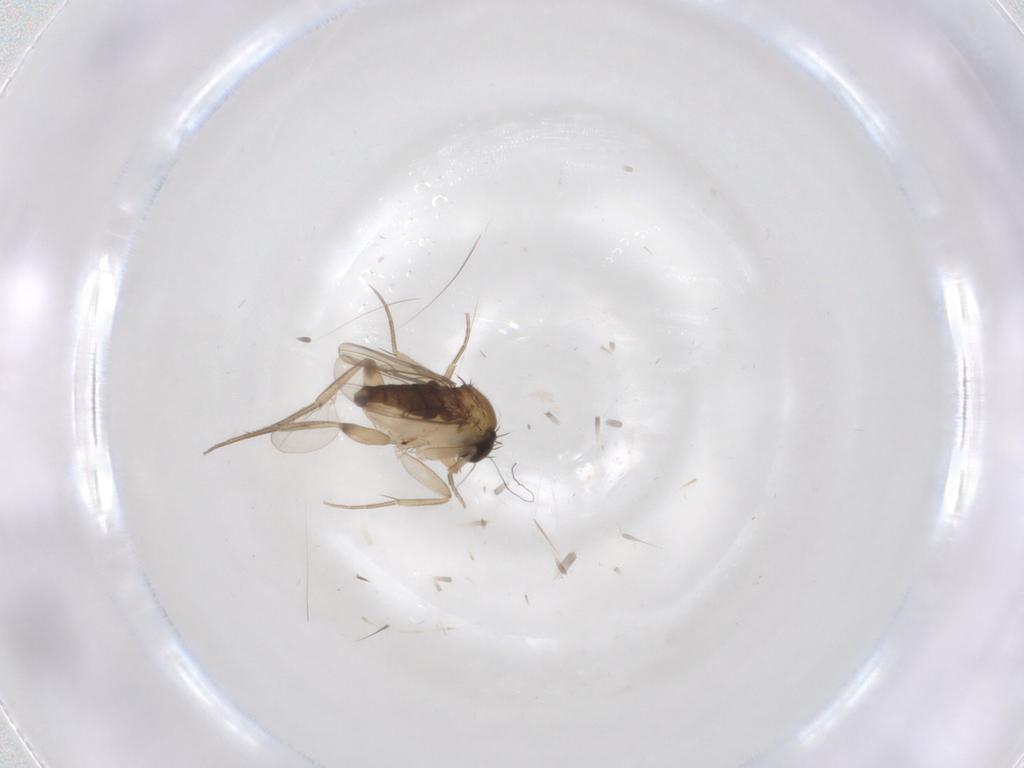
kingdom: Animalia
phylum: Arthropoda
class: Insecta
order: Diptera
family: Phoridae
